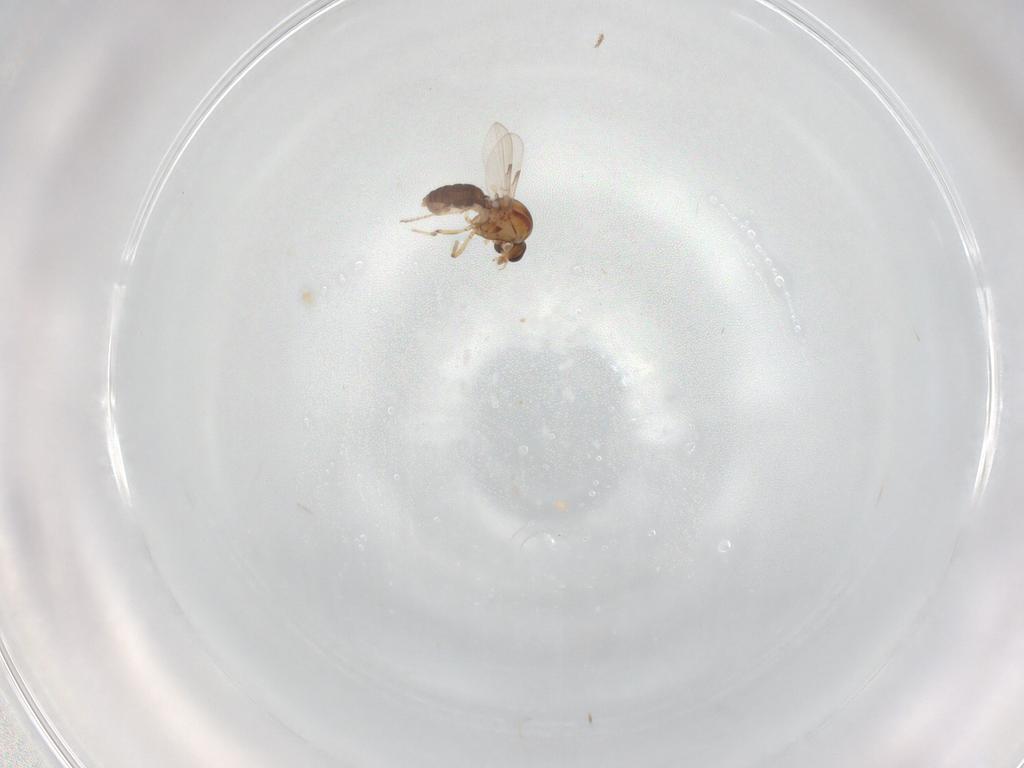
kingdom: Animalia
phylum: Arthropoda
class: Insecta
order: Diptera
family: Ceratopogonidae
